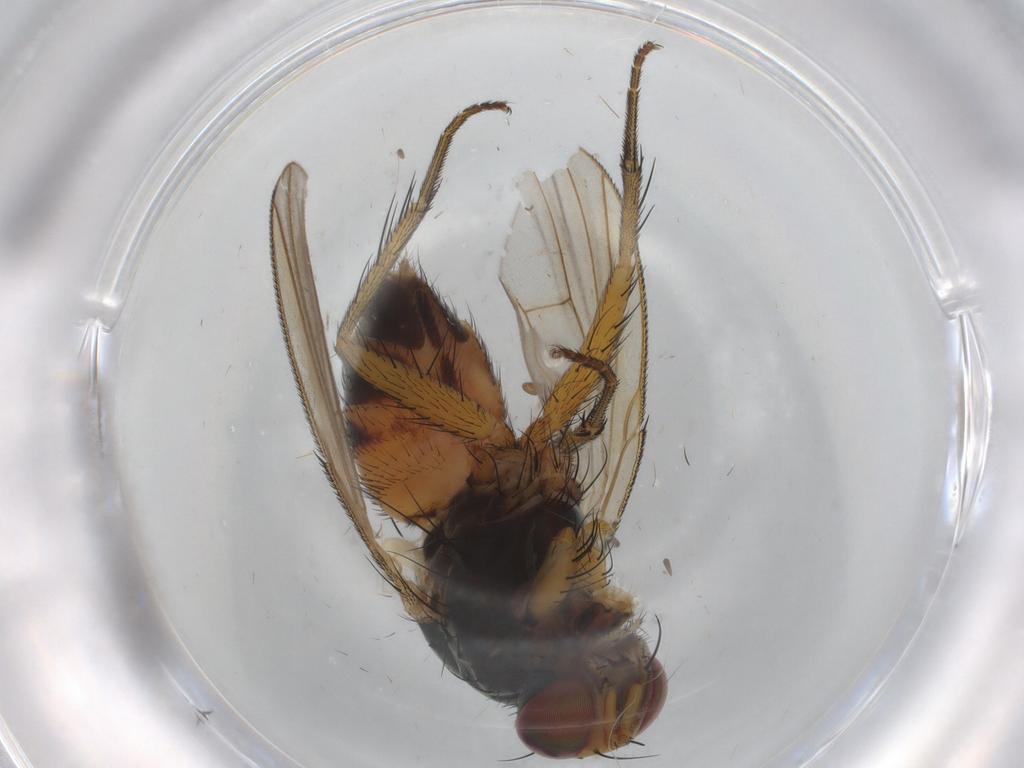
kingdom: Animalia
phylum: Arthropoda
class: Insecta
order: Diptera
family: Muscidae
